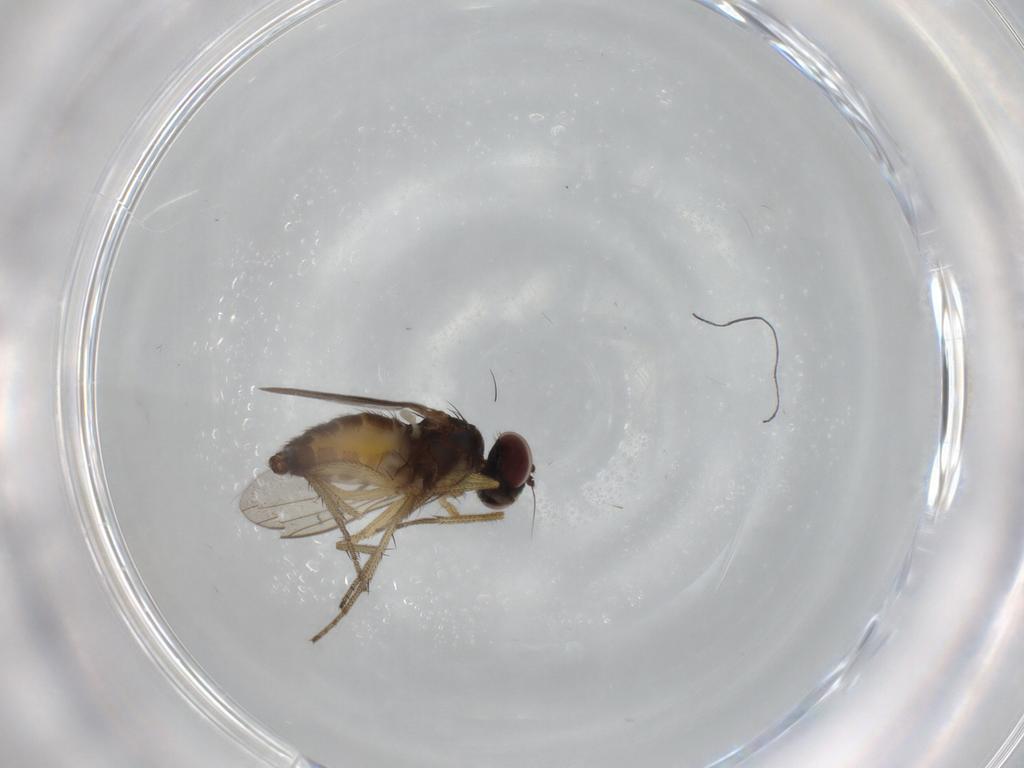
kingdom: Animalia
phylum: Arthropoda
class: Insecta
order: Diptera
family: Dolichopodidae
